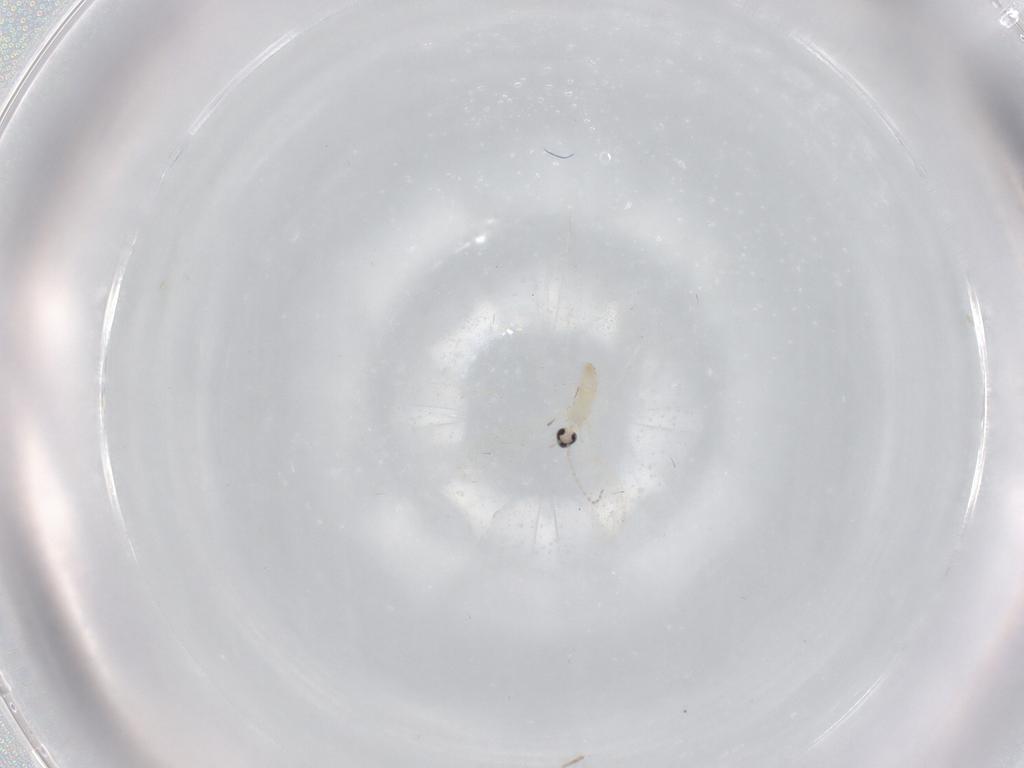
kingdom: Animalia
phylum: Arthropoda
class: Insecta
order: Diptera
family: Cecidomyiidae
